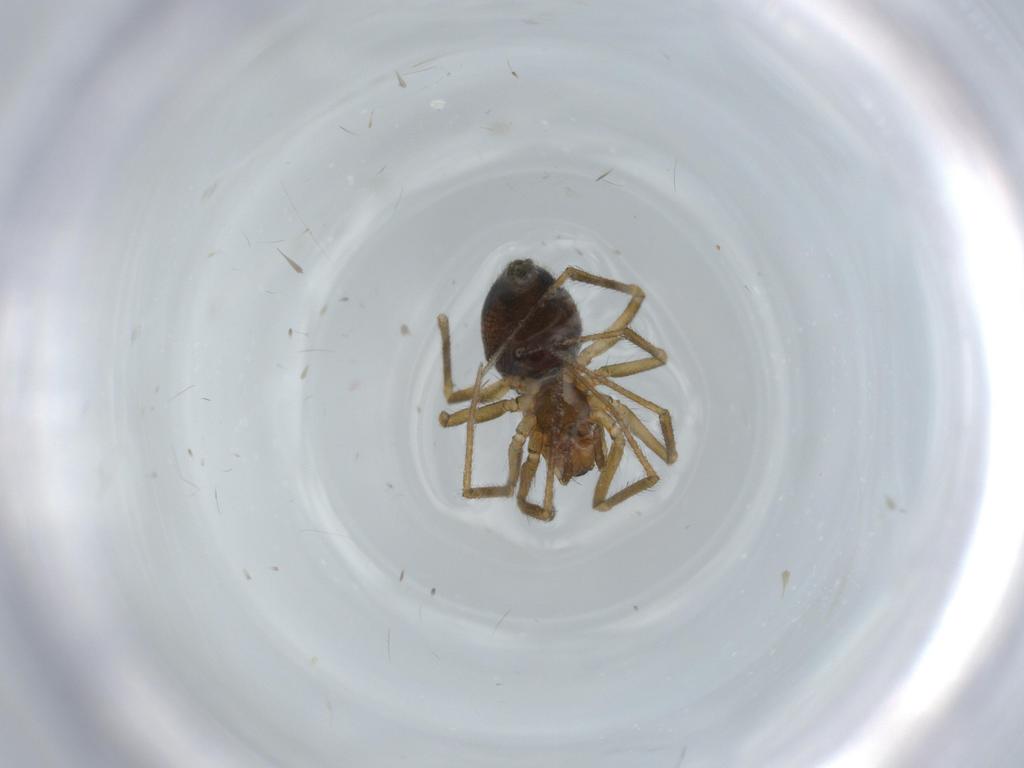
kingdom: Animalia
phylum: Arthropoda
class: Arachnida
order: Araneae
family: Linyphiidae
